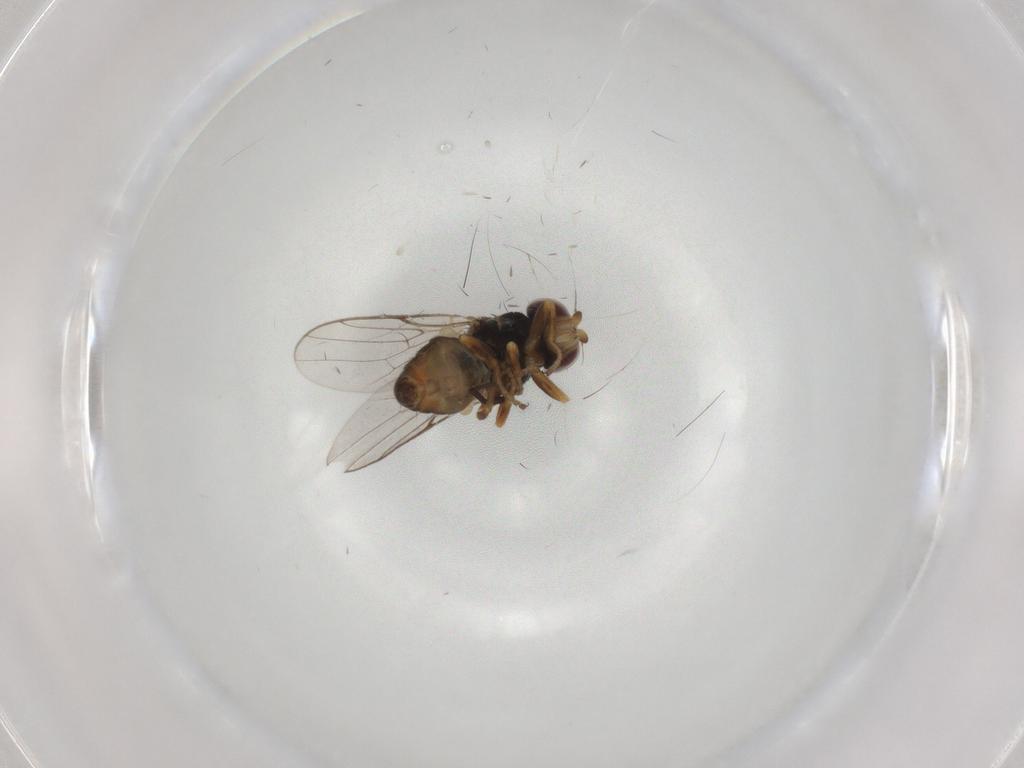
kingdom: Animalia
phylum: Arthropoda
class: Insecta
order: Diptera
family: Chloropidae
